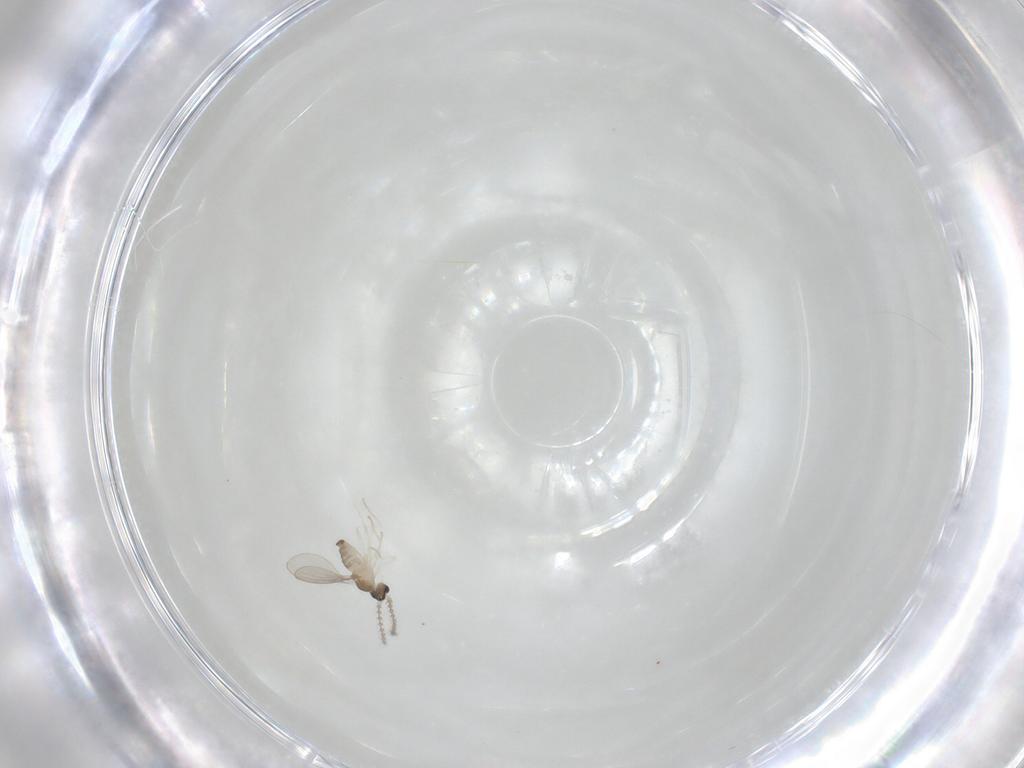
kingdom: Animalia
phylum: Arthropoda
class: Insecta
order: Diptera
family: Cecidomyiidae
